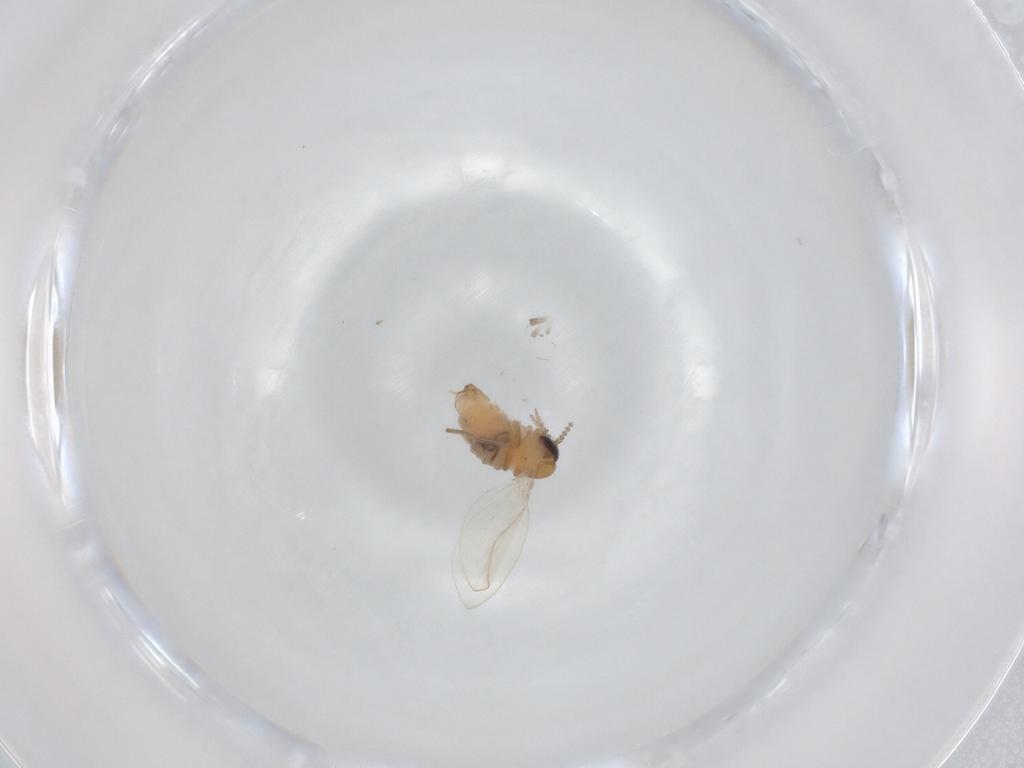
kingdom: Animalia
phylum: Arthropoda
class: Insecta
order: Diptera
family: Psychodidae
